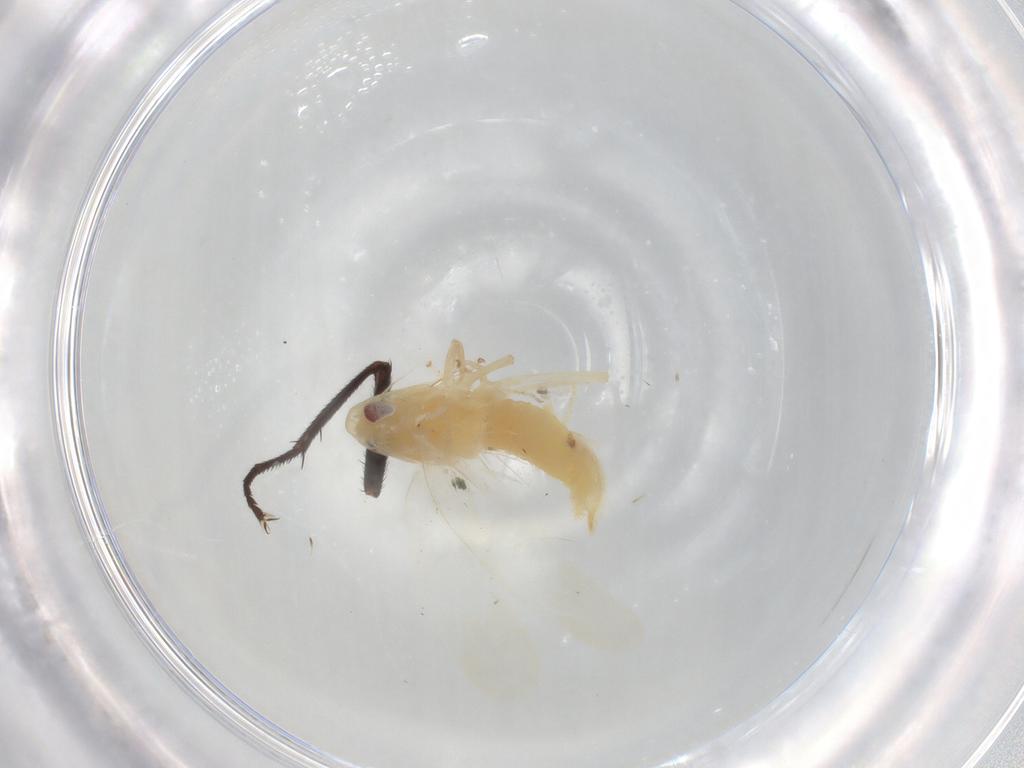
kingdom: Animalia
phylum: Arthropoda
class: Insecta
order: Hemiptera
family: Cicadellidae
